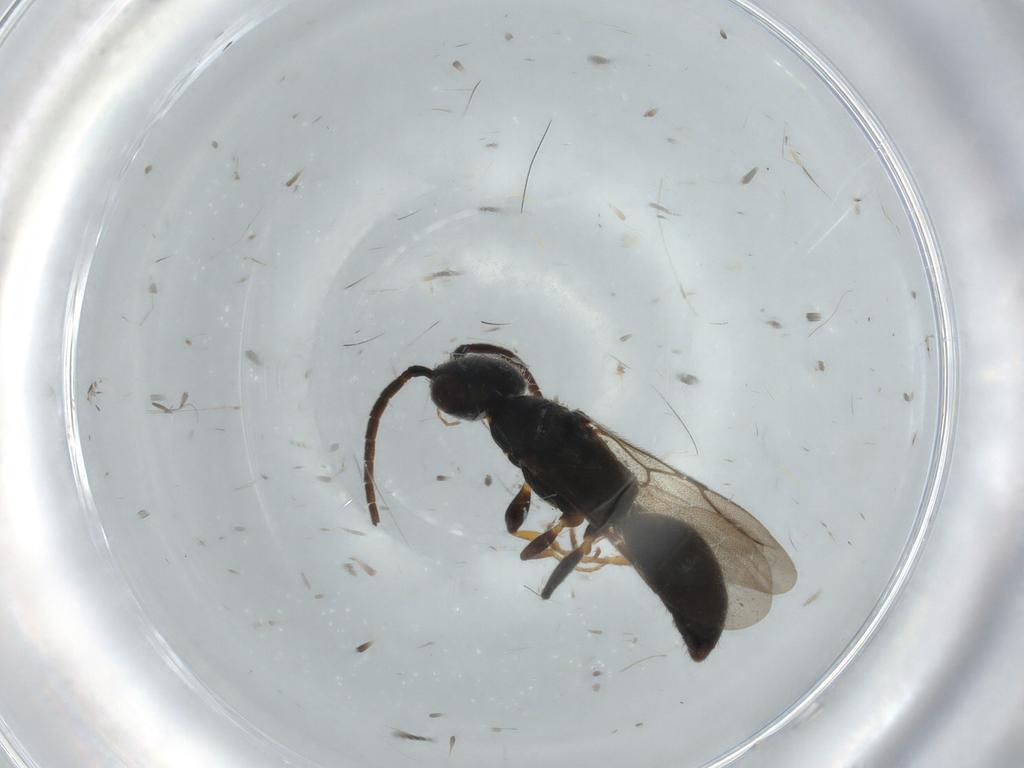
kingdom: Animalia
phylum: Arthropoda
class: Insecta
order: Hymenoptera
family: Bethylidae
